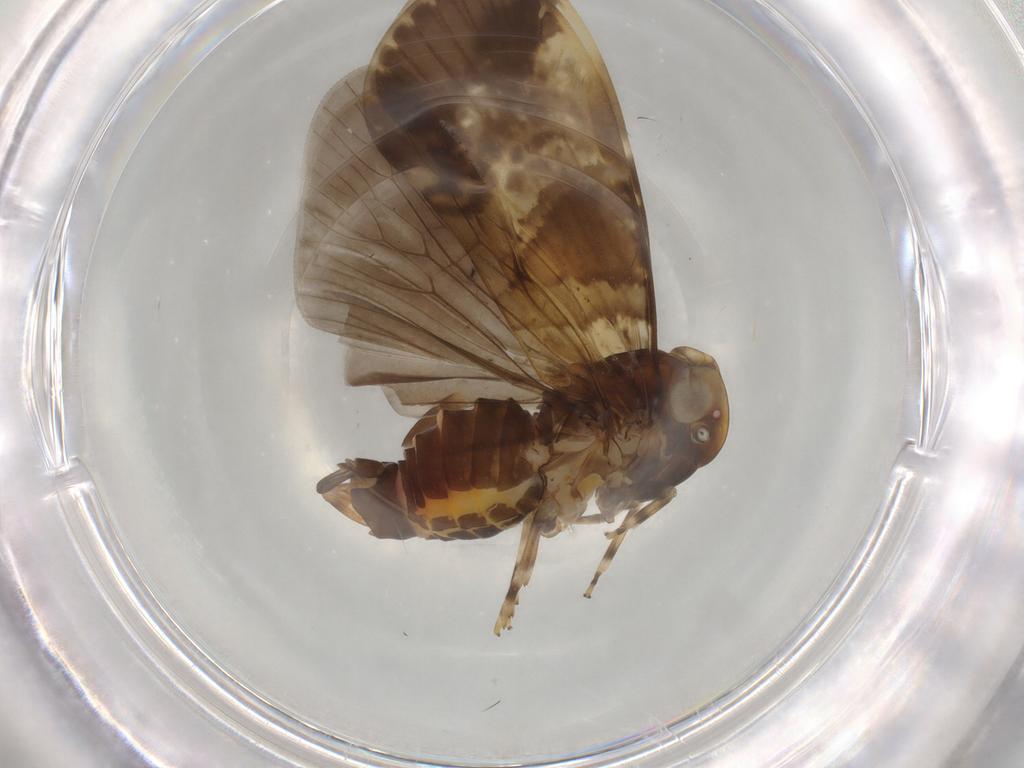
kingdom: Animalia
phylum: Arthropoda
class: Insecta
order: Hemiptera
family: Cixiidae
